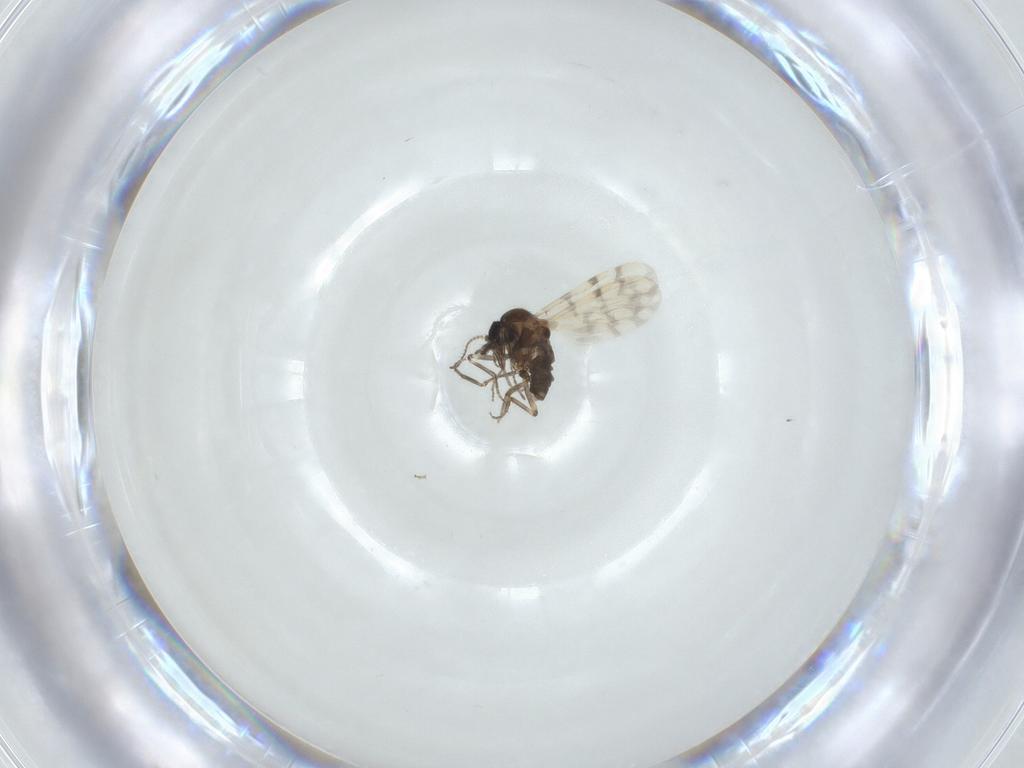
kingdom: Animalia
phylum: Arthropoda
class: Insecta
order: Diptera
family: Ceratopogonidae
